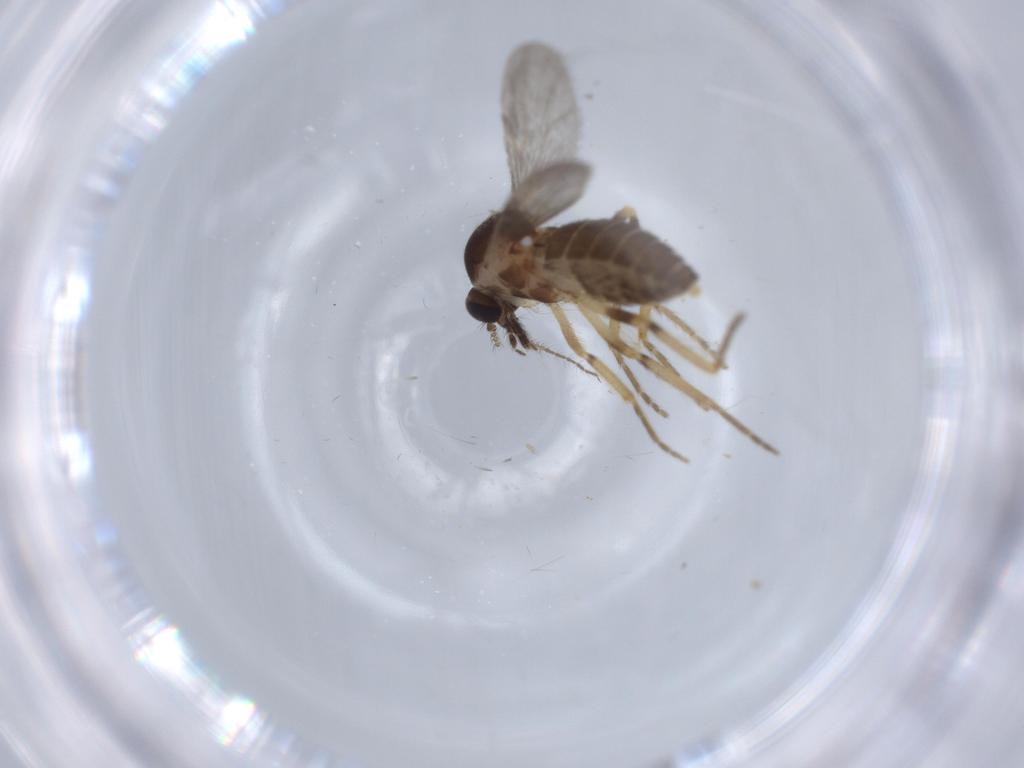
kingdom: Animalia
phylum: Arthropoda
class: Insecta
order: Diptera
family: Ceratopogonidae
